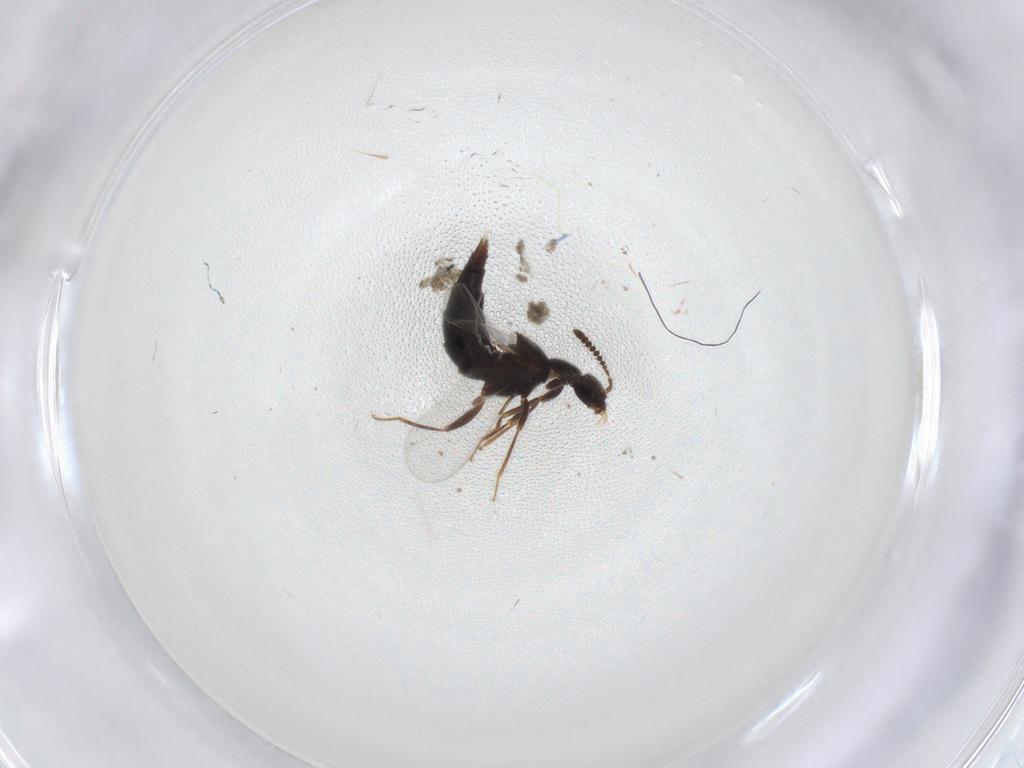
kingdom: Animalia
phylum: Arthropoda
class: Insecta
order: Coleoptera
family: Staphylinidae
